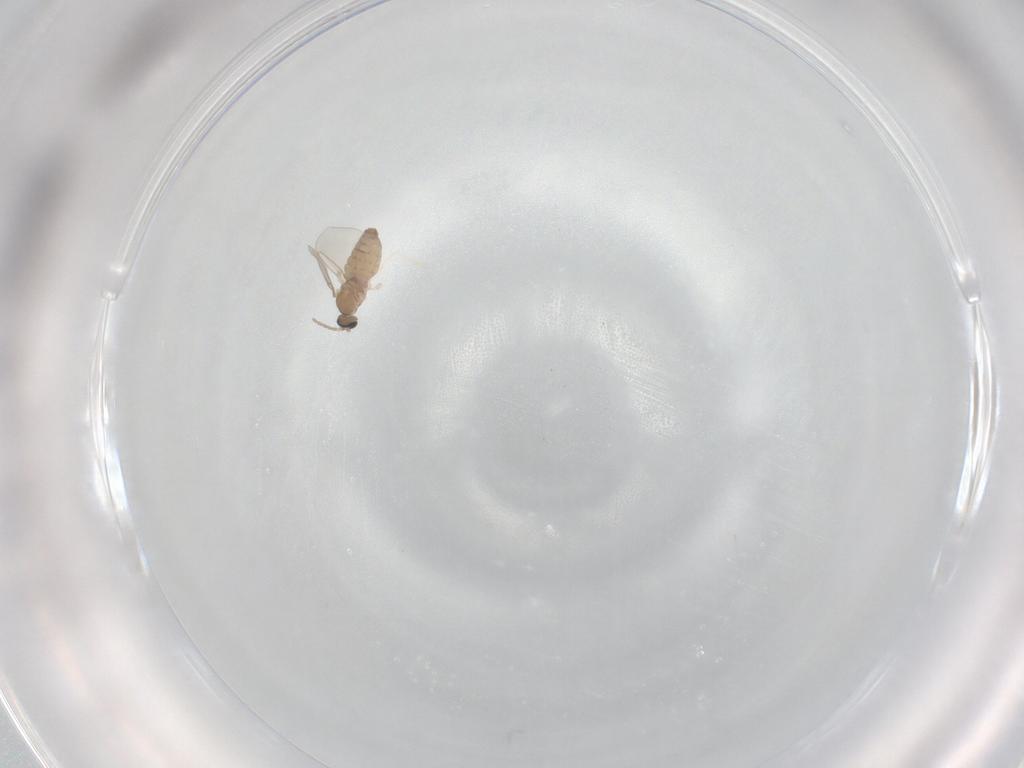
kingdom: Animalia
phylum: Arthropoda
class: Insecta
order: Diptera
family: Cecidomyiidae
